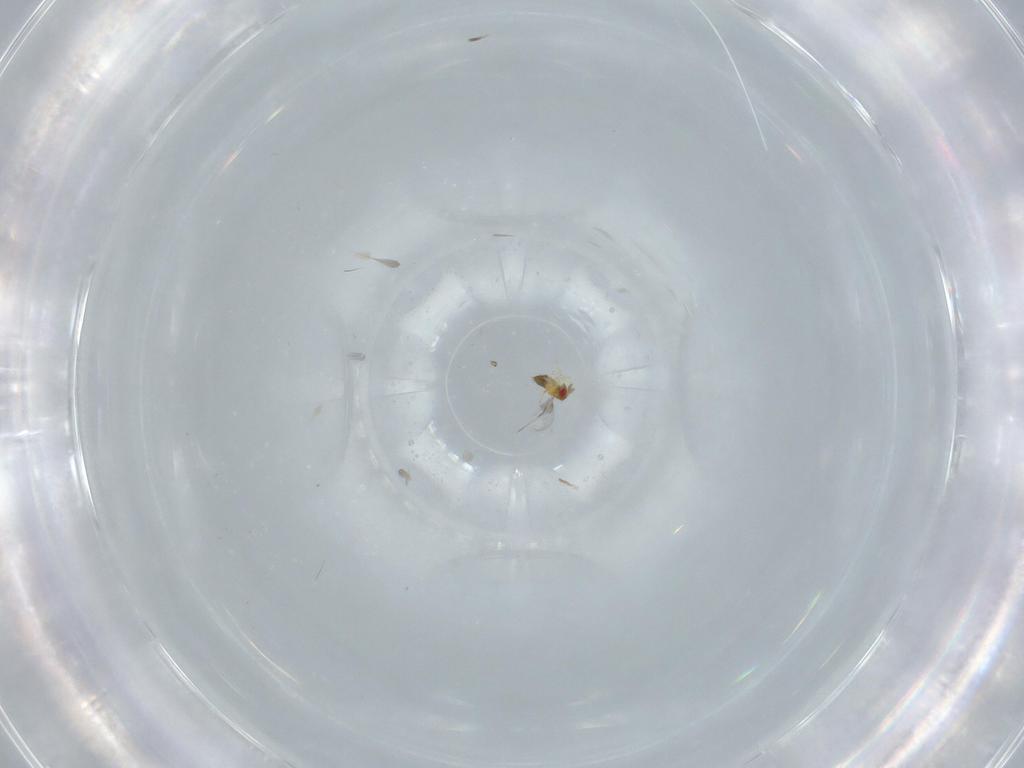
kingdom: Animalia
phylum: Arthropoda
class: Insecta
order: Hymenoptera
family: Trichogrammatidae
